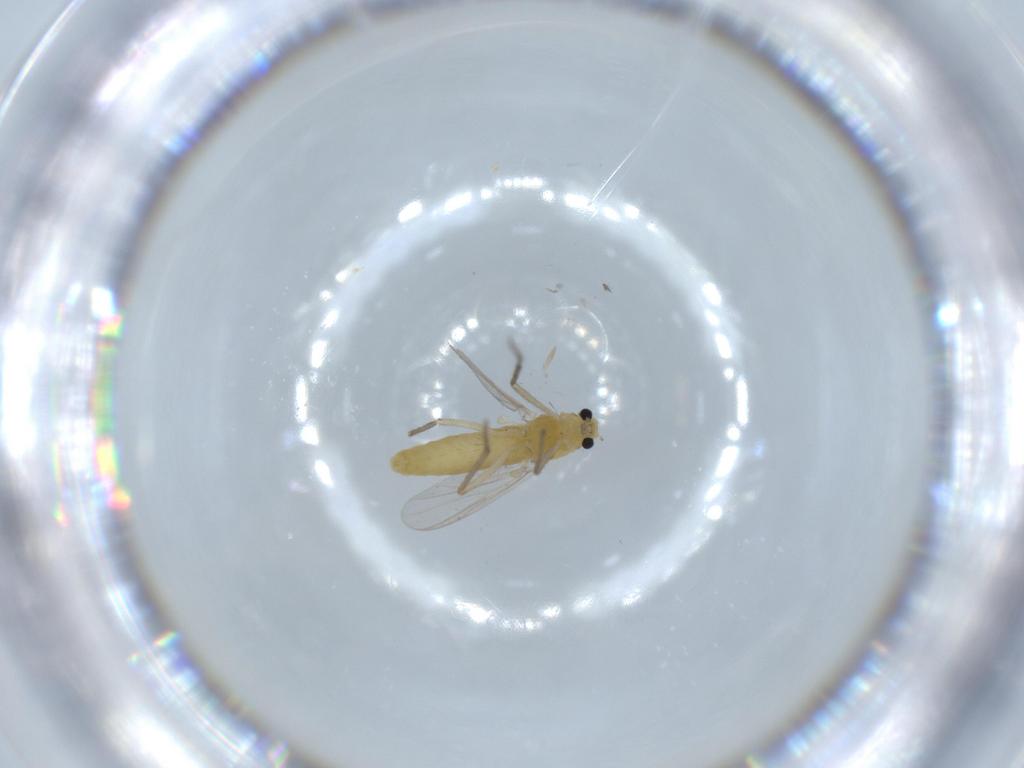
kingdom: Animalia
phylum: Arthropoda
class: Insecta
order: Diptera
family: Chironomidae
